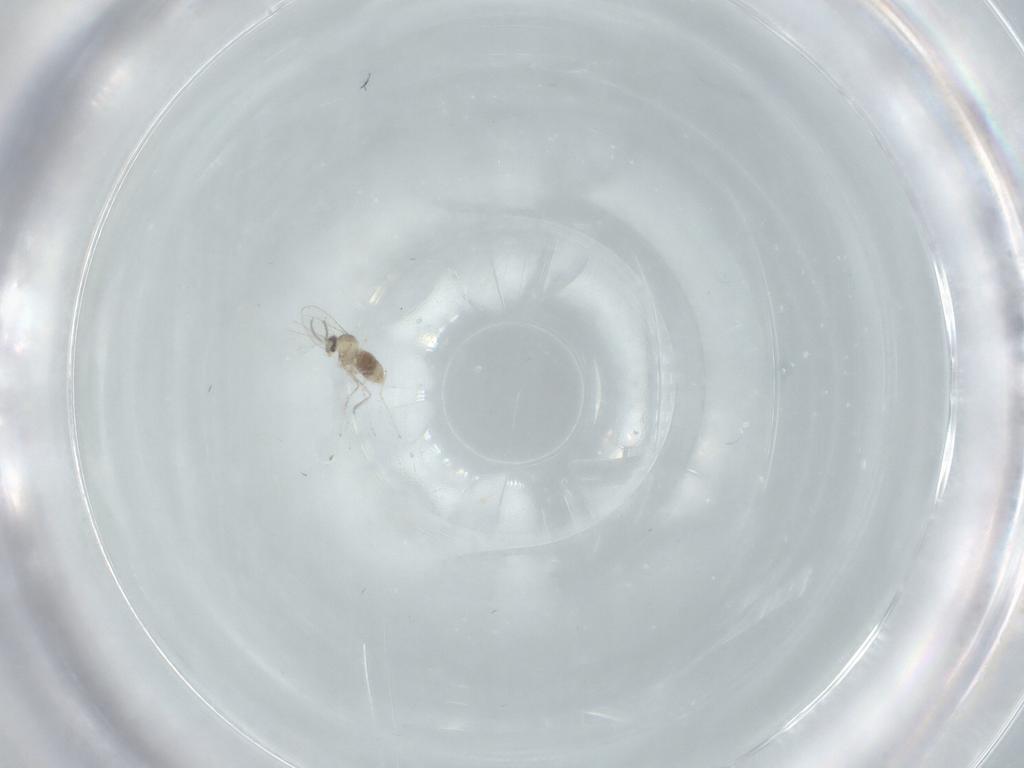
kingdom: Animalia
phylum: Arthropoda
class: Insecta
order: Diptera
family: Sciaridae
